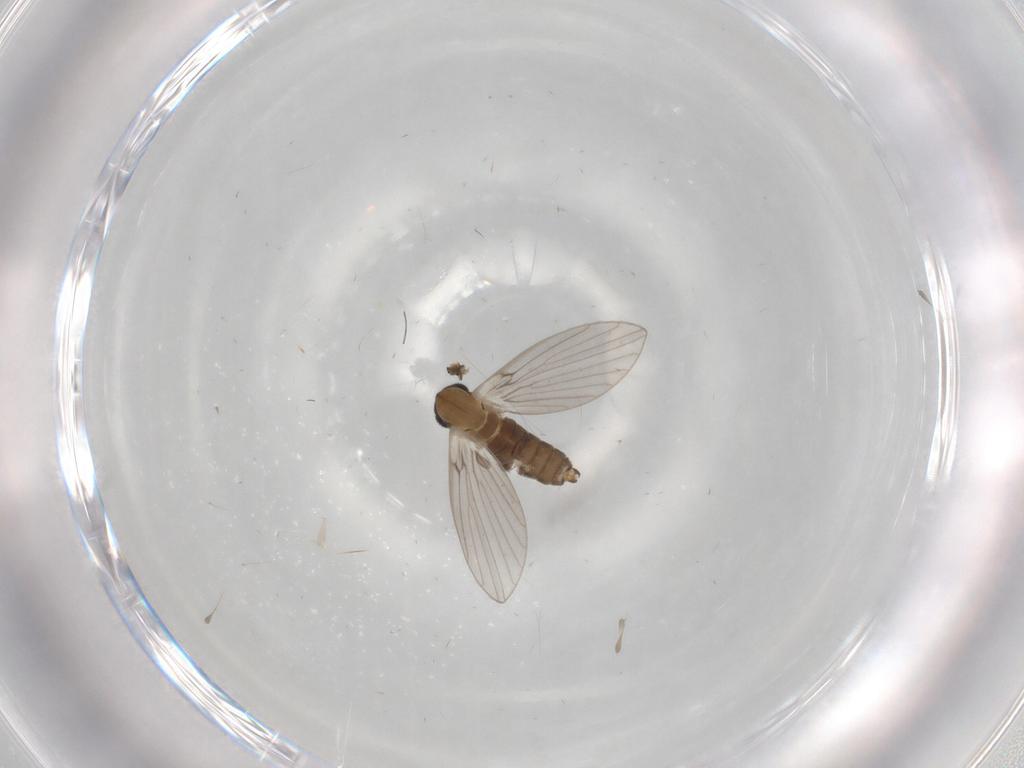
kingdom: Animalia
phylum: Arthropoda
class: Insecta
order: Diptera
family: Psychodidae
